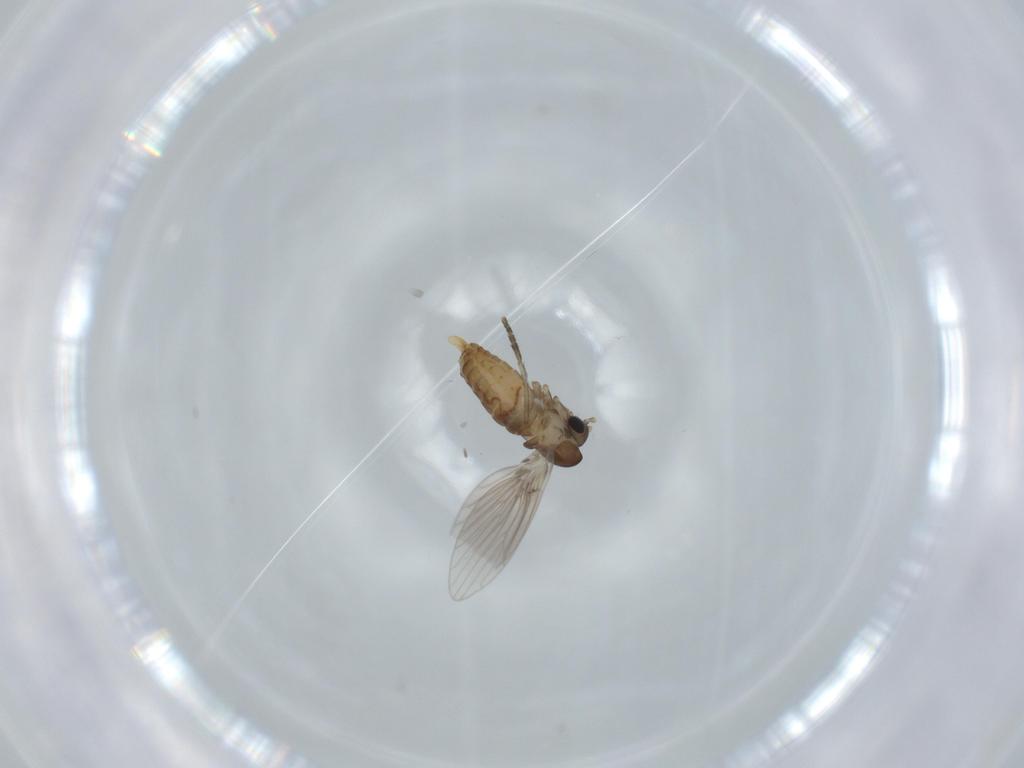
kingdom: Animalia
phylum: Arthropoda
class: Insecta
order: Diptera
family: Psychodidae
